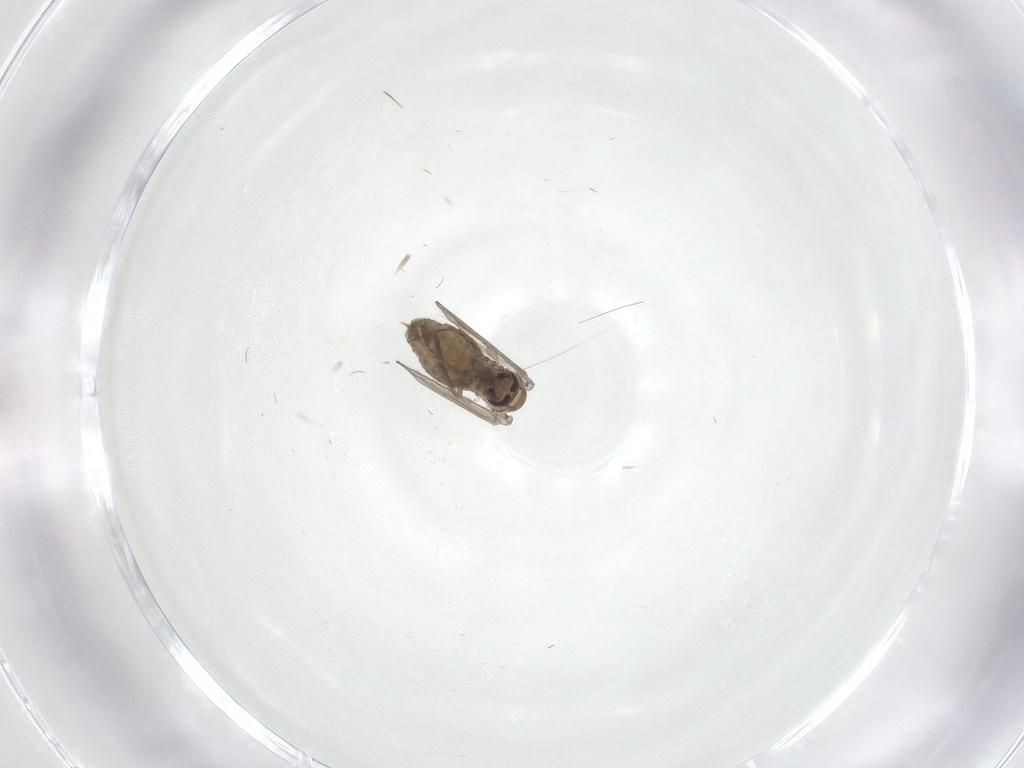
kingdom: Animalia
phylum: Arthropoda
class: Insecta
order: Diptera
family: Psychodidae
